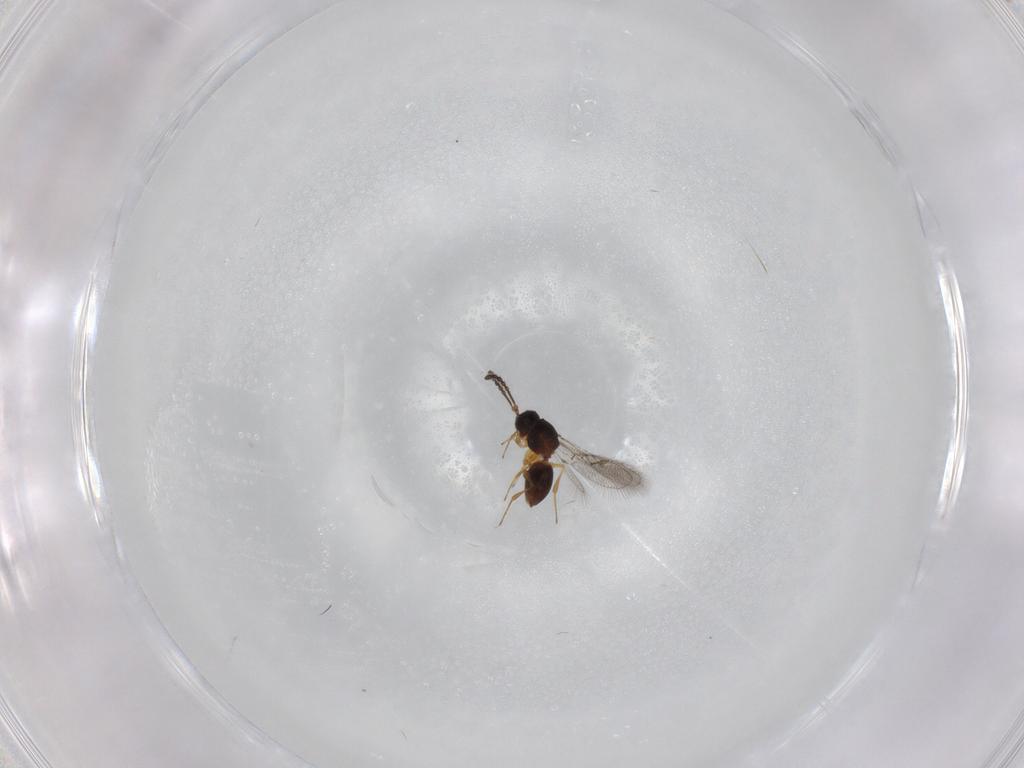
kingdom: Animalia
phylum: Arthropoda
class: Insecta
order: Hymenoptera
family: Figitidae
